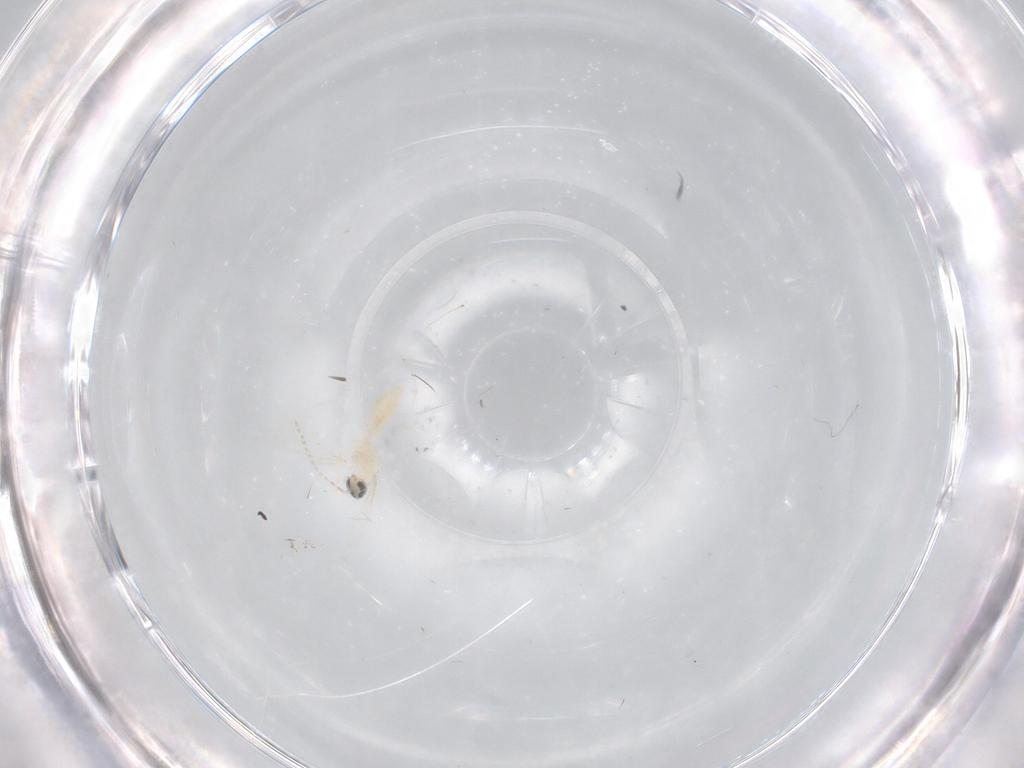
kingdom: Animalia
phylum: Arthropoda
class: Insecta
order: Diptera
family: Cecidomyiidae
